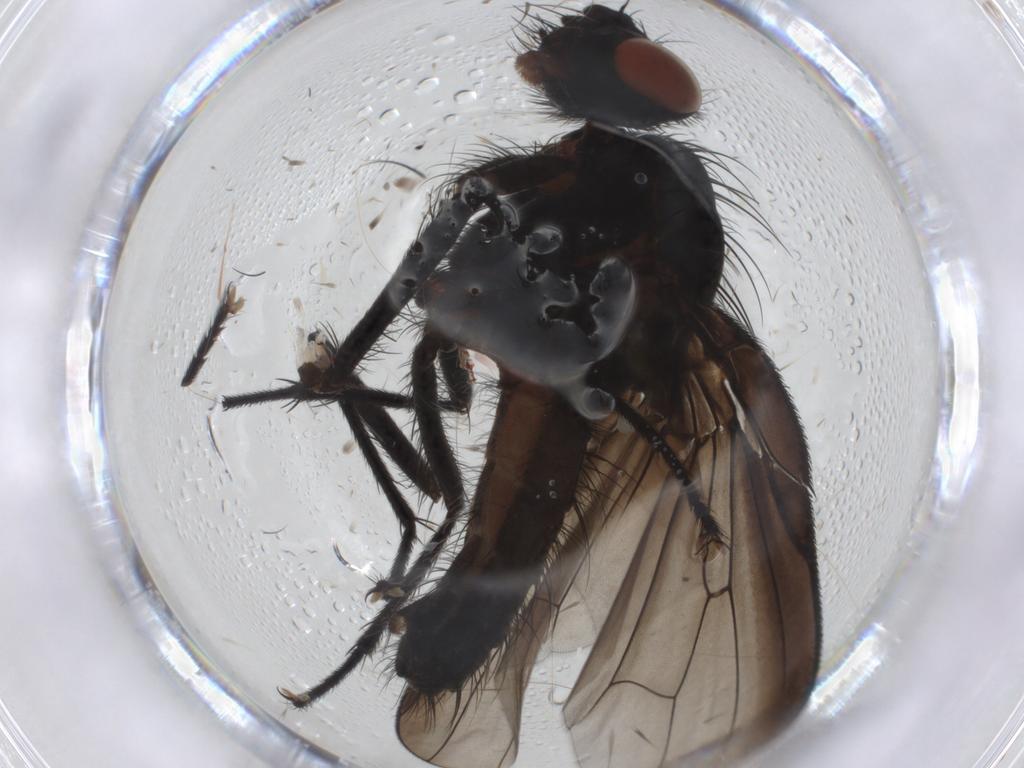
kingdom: Animalia
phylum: Arthropoda
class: Insecta
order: Diptera
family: Anthomyiidae
